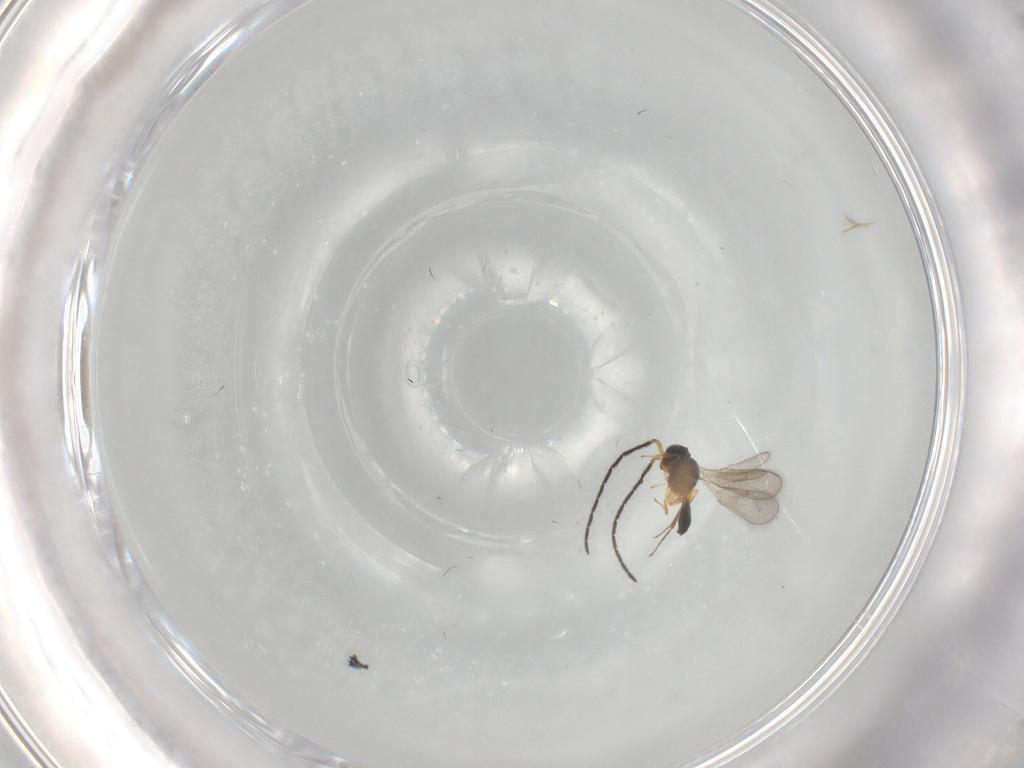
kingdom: Animalia
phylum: Arthropoda
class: Insecta
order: Hymenoptera
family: Scelionidae
